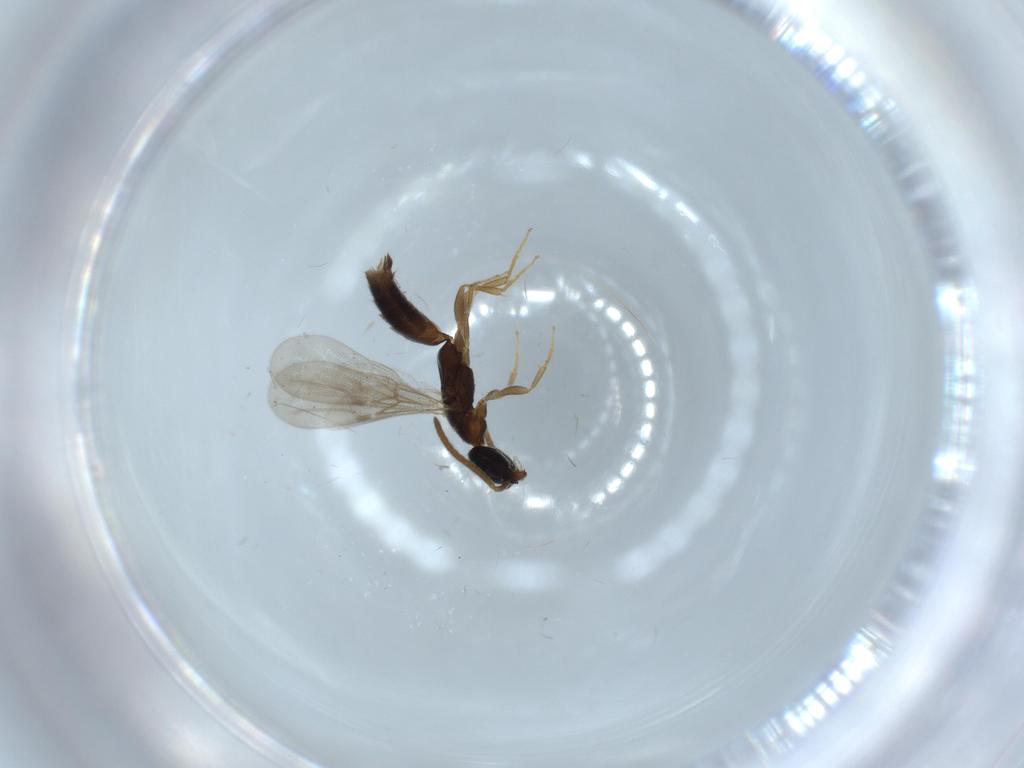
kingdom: Animalia
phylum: Arthropoda
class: Insecta
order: Hymenoptera
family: Bethylidae
